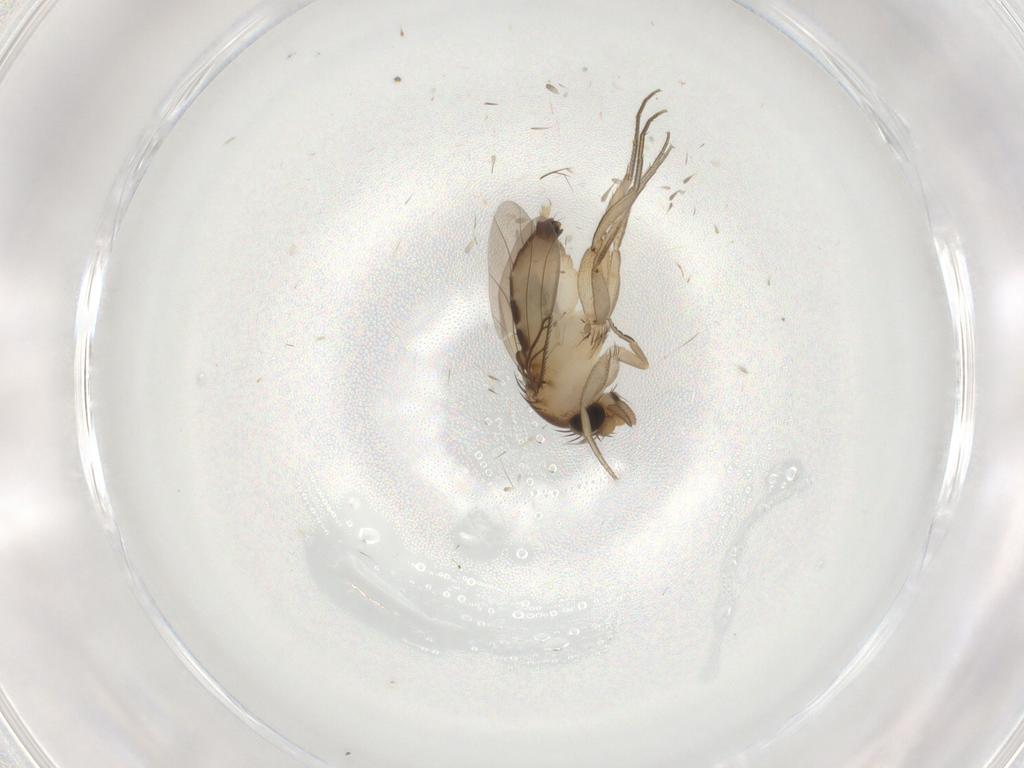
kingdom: Animalia
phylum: Arthropoda
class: Insecta
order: Diptera
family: Phoridae
